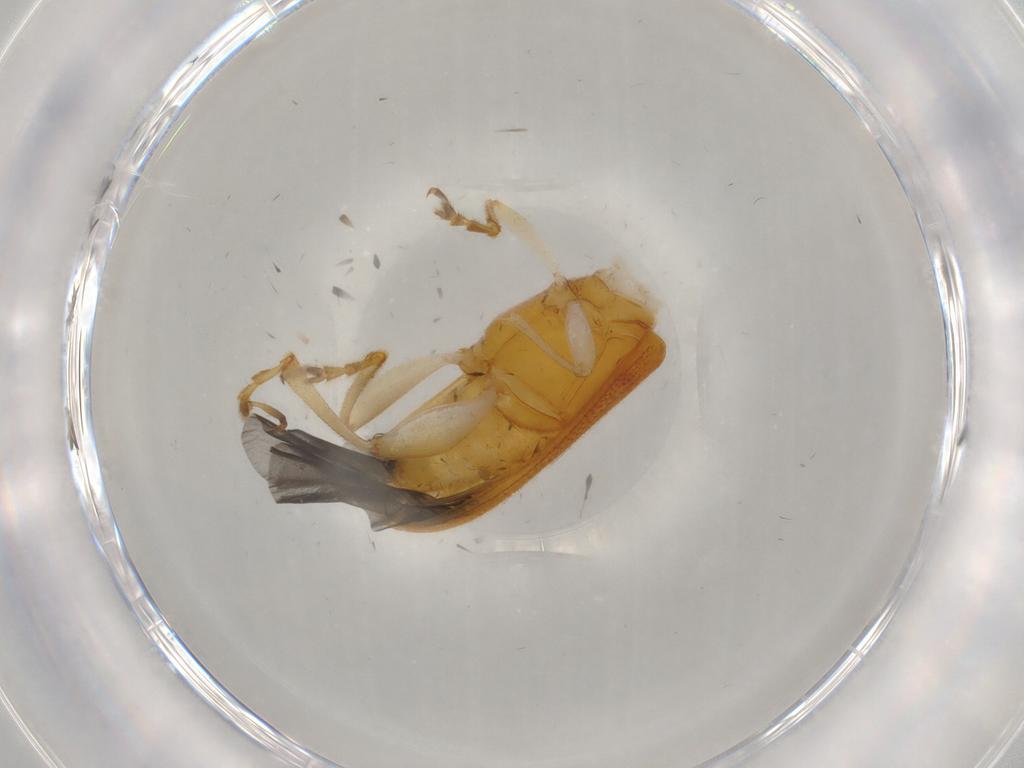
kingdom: Animalia
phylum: Arthropoda
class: Insecta
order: Coleoptera
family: Chrysomelidae
